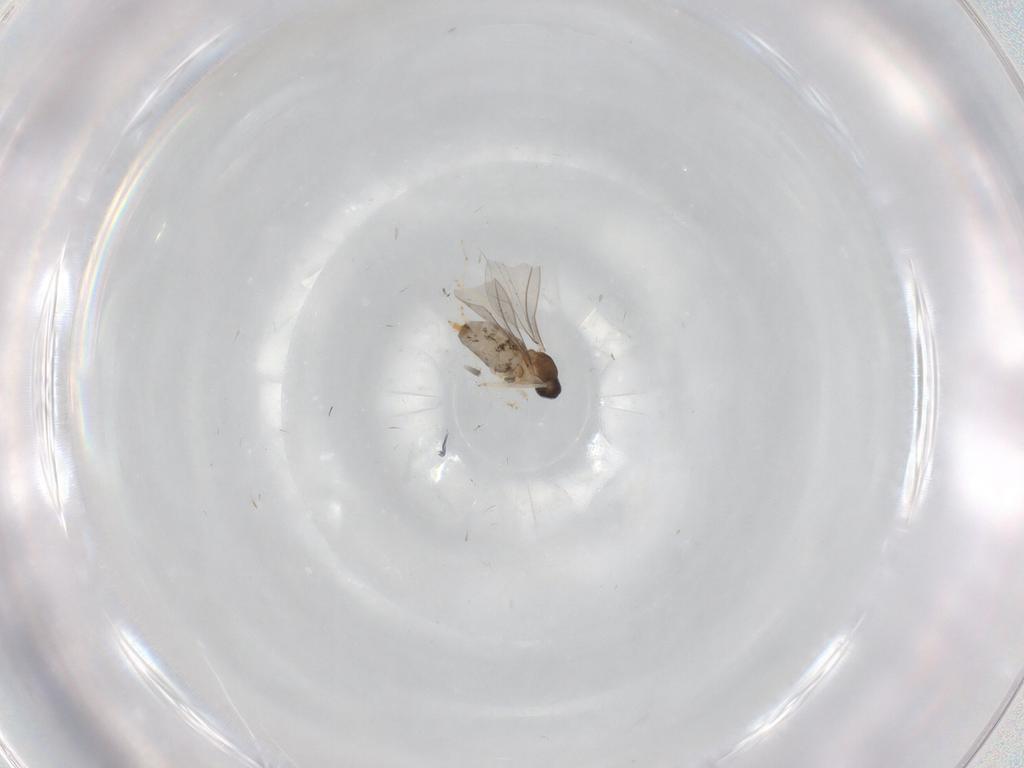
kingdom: Animalia
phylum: Arthropoda
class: Insecta
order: Diptera
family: Cecidomyiidae
